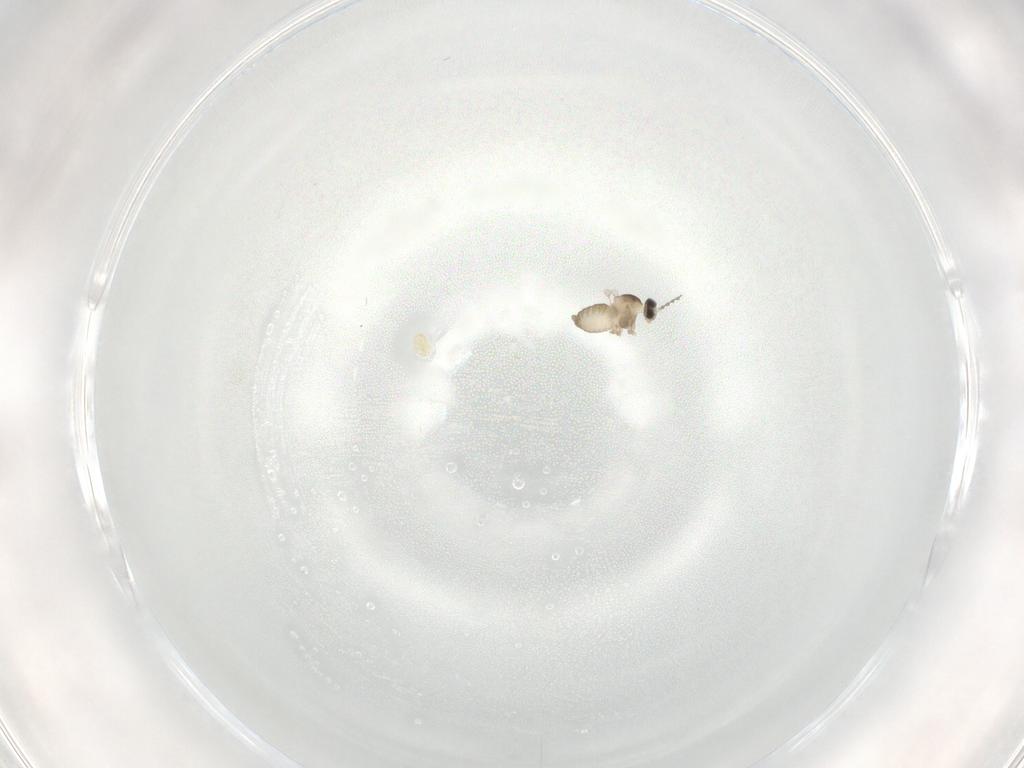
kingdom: Animalia
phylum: Arthropoda
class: Insecta
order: Diptera
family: Cecidomyiidae
